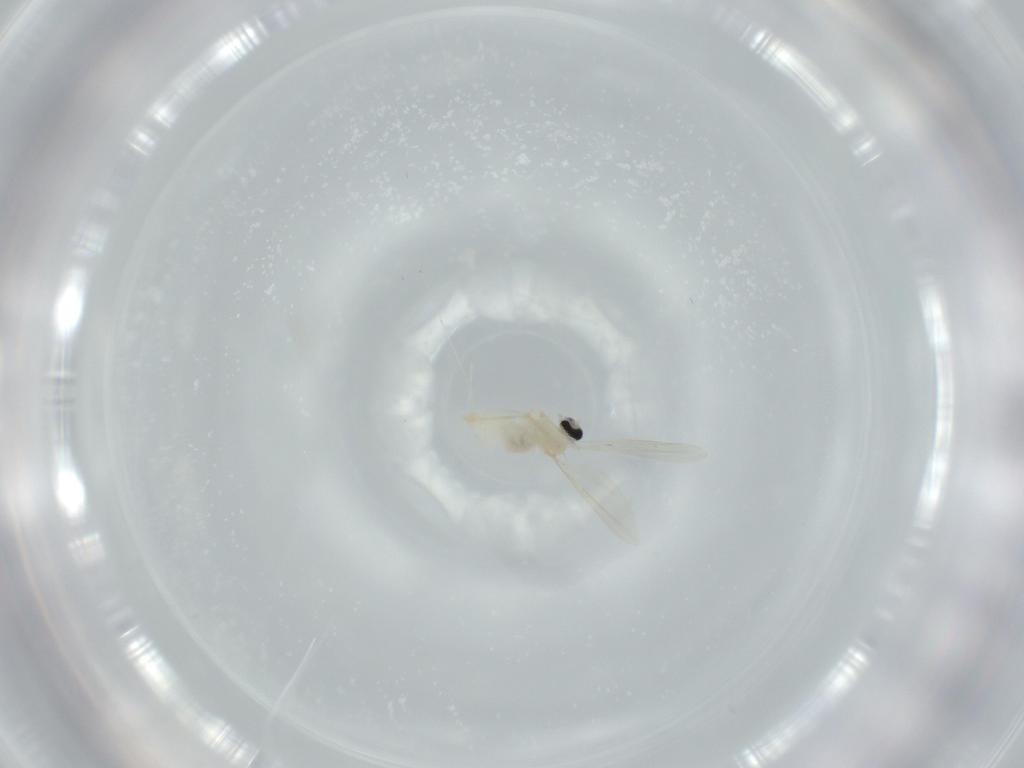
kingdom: Animalia
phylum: Arthropoda
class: Insecta
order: Diptera
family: Cecidomyiidae
